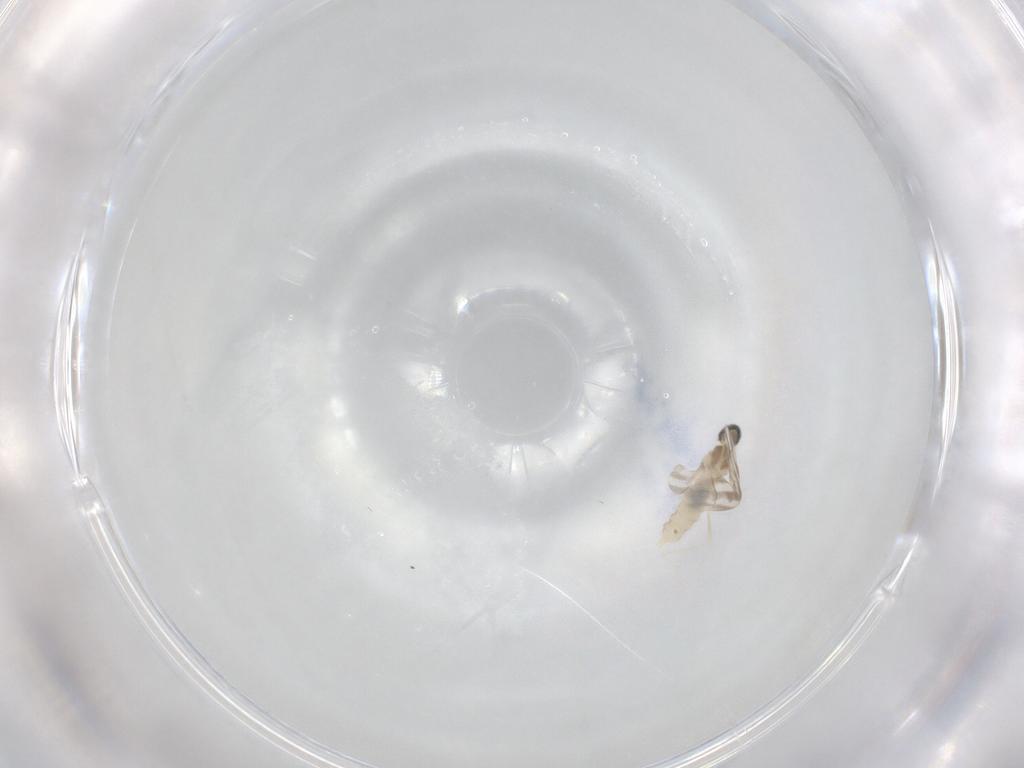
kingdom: Animalia
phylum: Arthropoda
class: Insecta
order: Diptera
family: Cecidomyiidae
